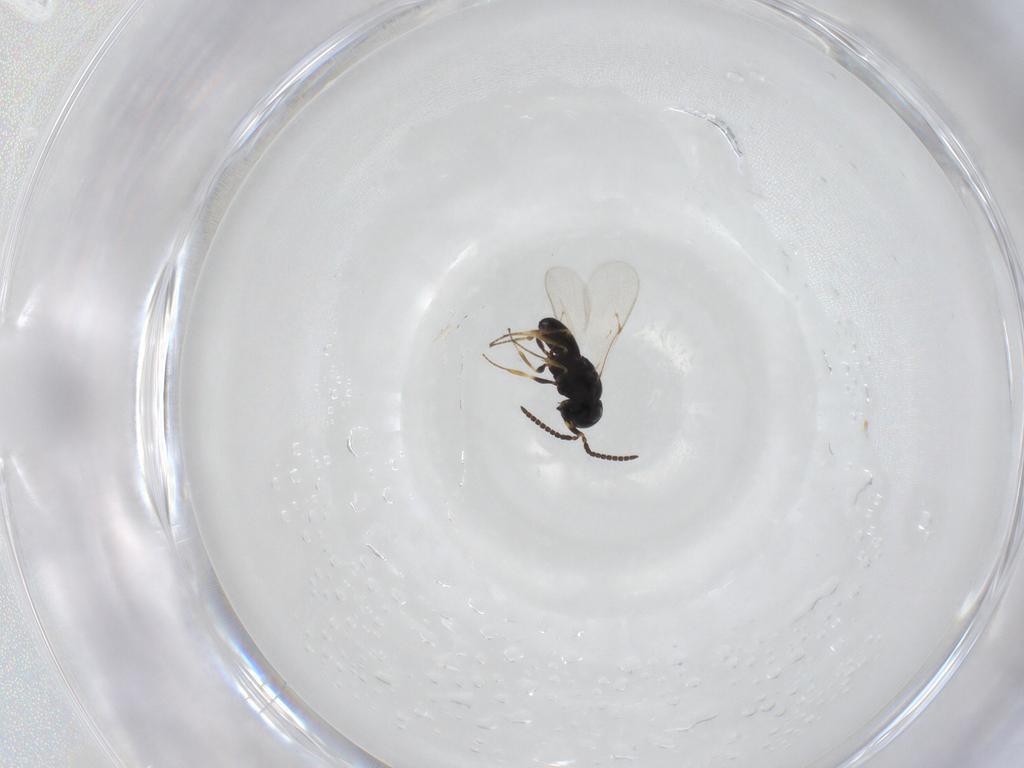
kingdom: Animalia
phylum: Arthropoda
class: Insecta
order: Hymenoptera
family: Scelionidae
